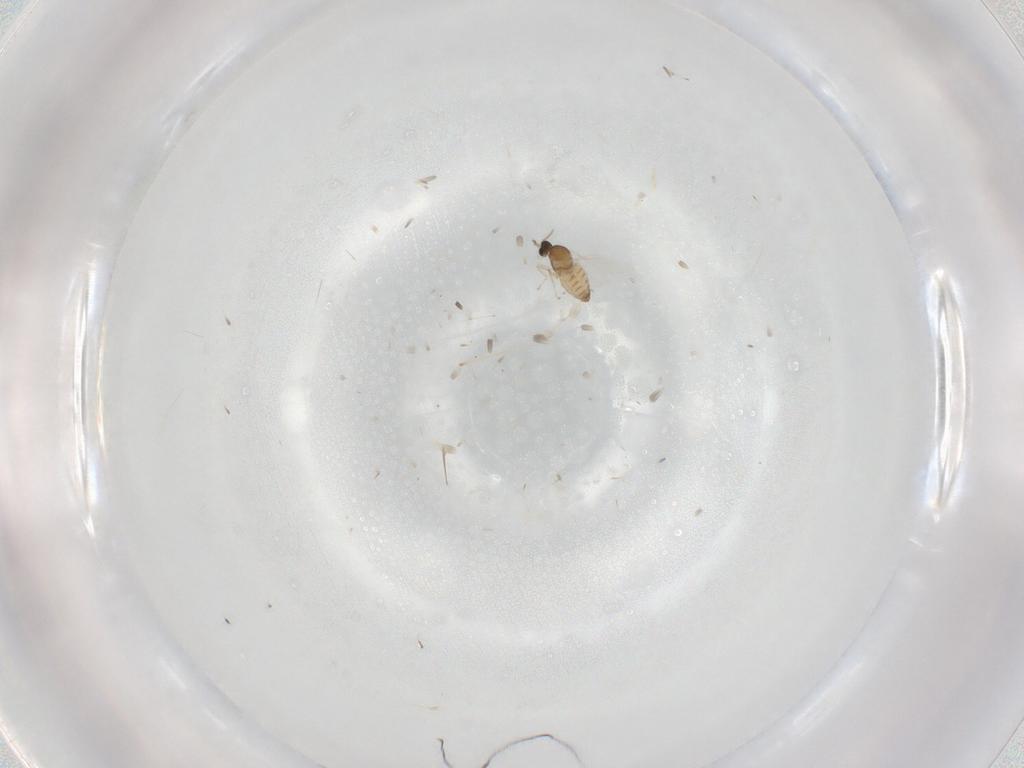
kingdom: Animalia
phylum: Arthropoda
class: Insecta
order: Diptera
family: Cecidomyiidae
